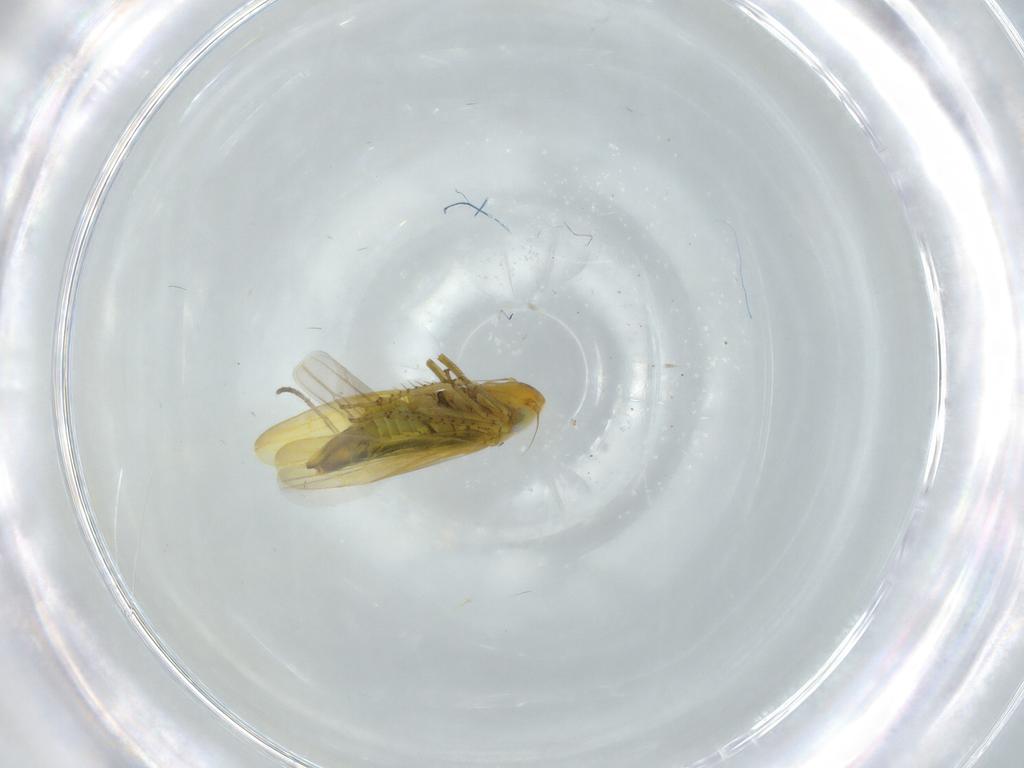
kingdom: Animalia
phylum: Arthropoda
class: Insecta
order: Hemiptera
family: Cicadellidae
